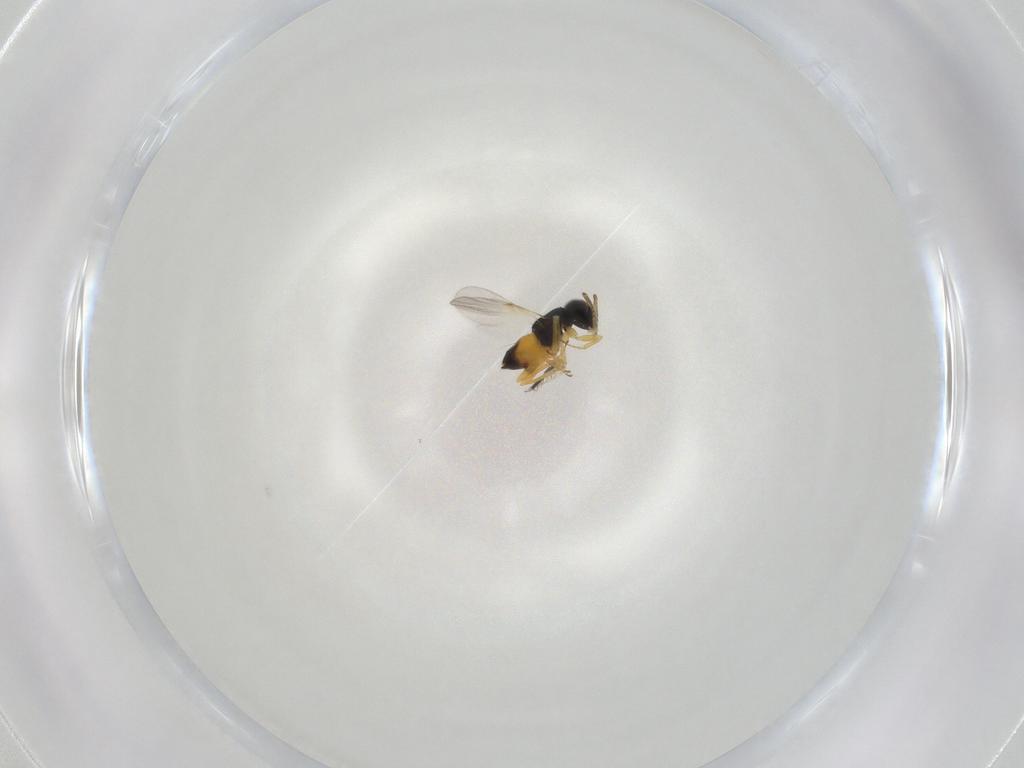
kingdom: Animalia
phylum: Arthropoda
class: Insecta
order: Hymenoptera
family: Encyrtidae
